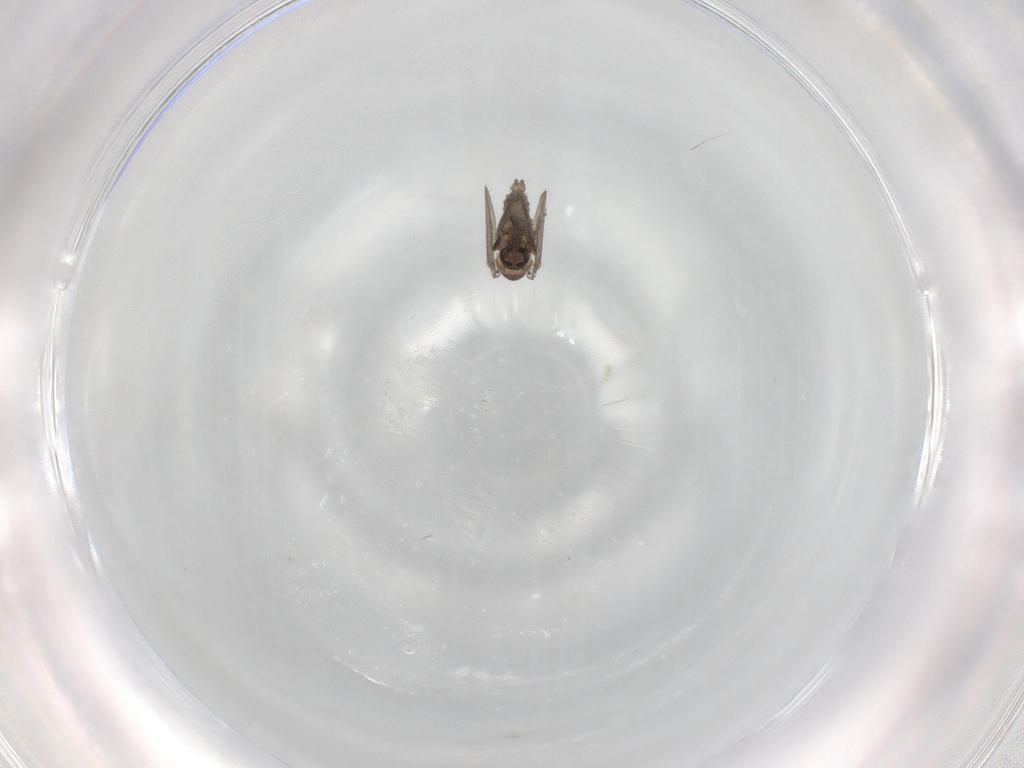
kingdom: Animalia
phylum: Arthropoda
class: Insecta
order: Diptera
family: Psychodidae
